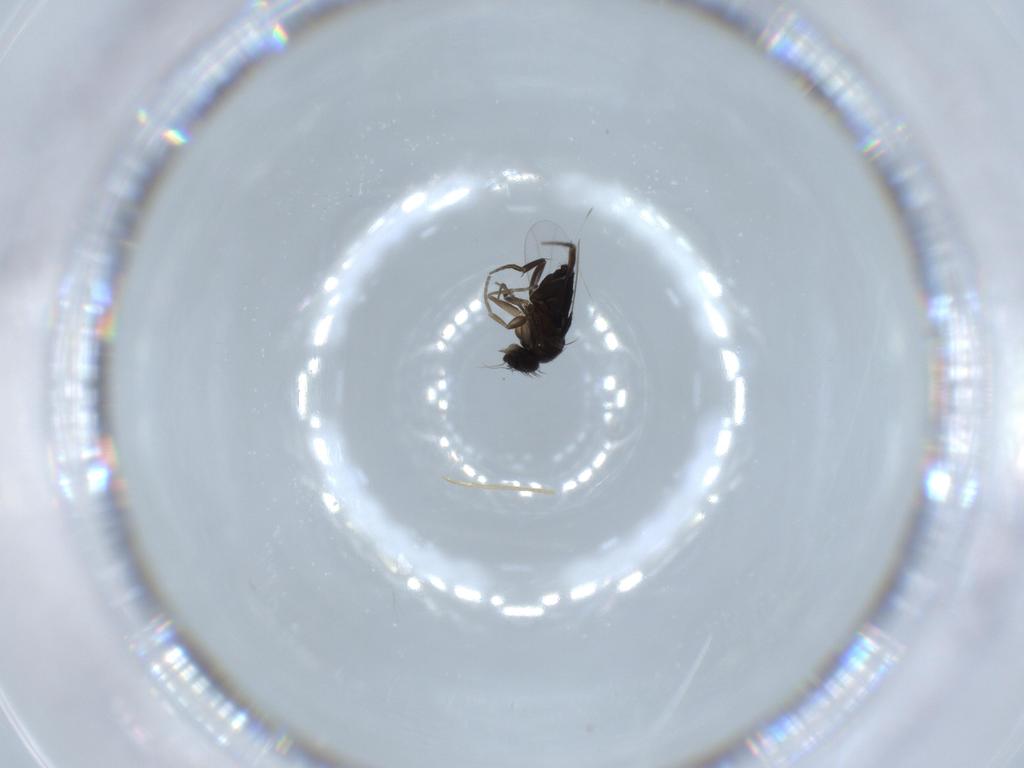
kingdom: Animalia
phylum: Arthropoda
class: Insecta
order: Diptera
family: Phoridae
